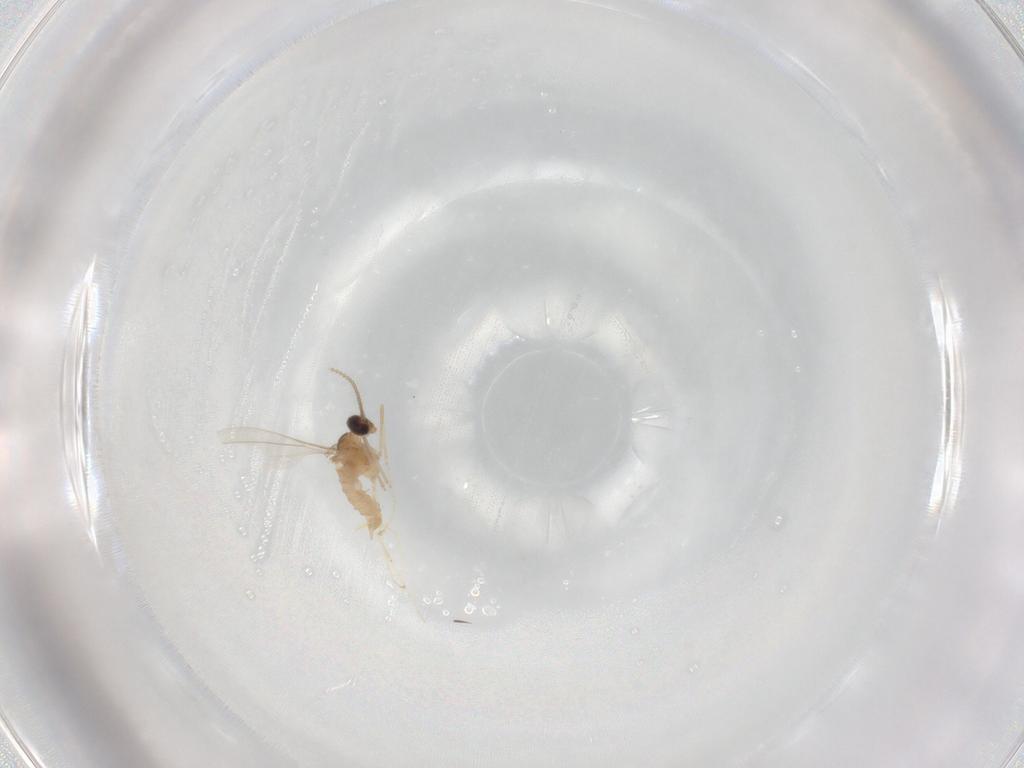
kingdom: Animalia
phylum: Arthropoda
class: Insecta
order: Diptera
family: Cecidomyiidae
